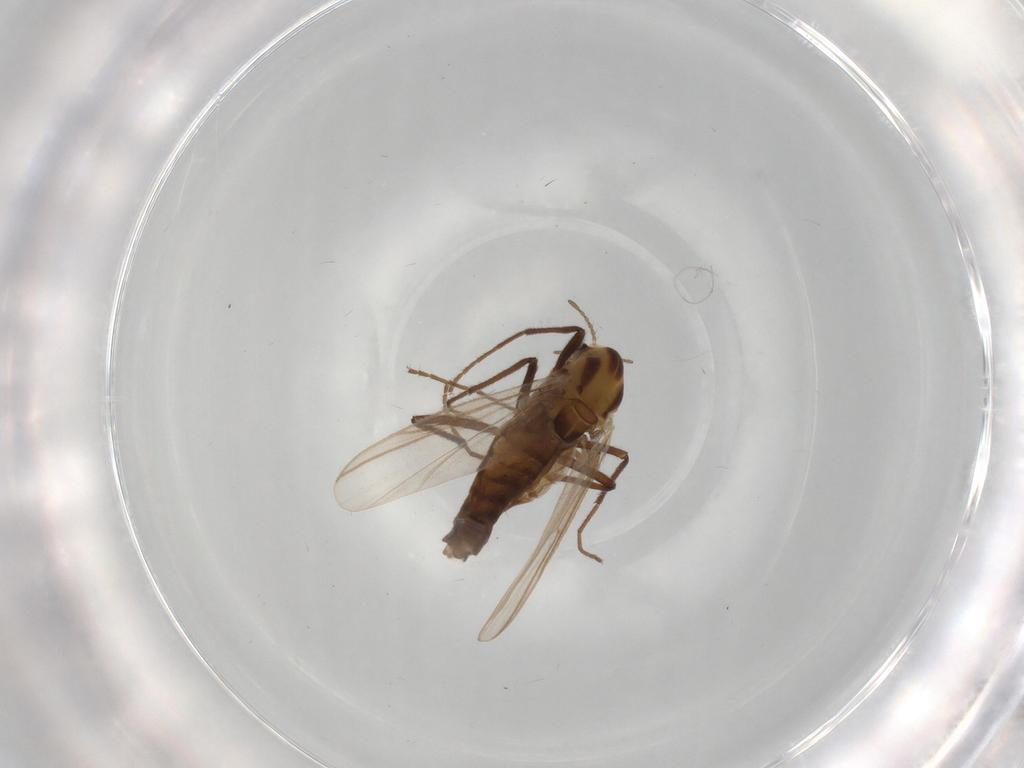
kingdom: Animalia
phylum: Arthropoda
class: Insecta
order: Diptera
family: Chironomidae
